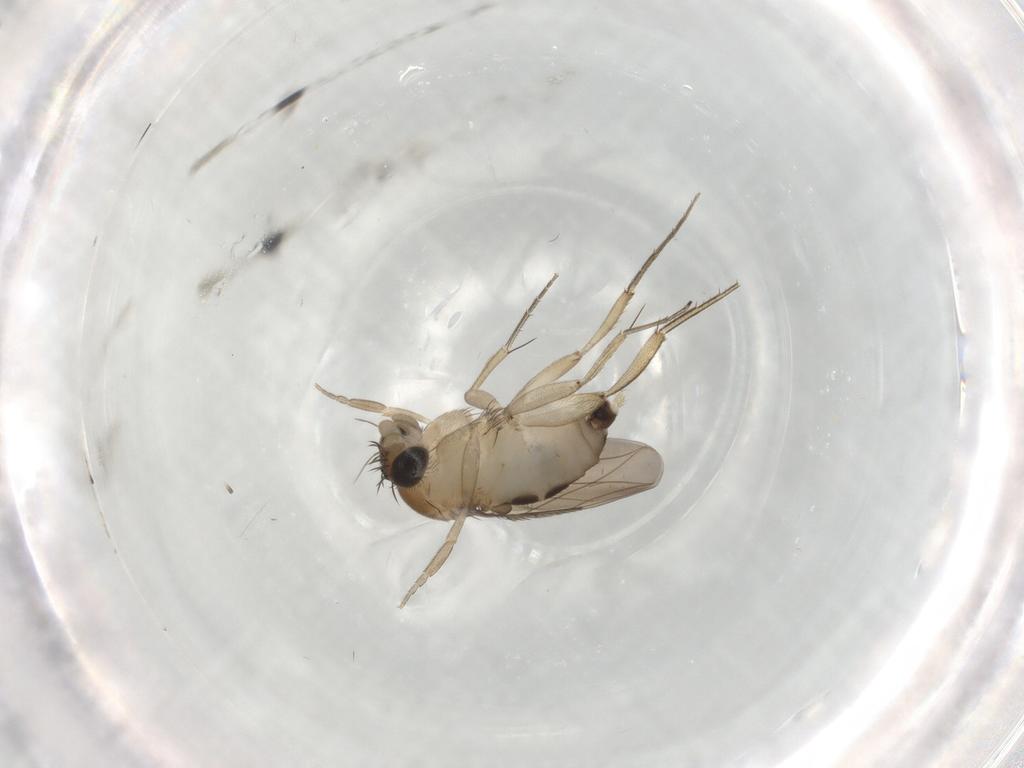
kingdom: Animalia
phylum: Arthropoda
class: Insecta
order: Diptera
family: Phoridae
